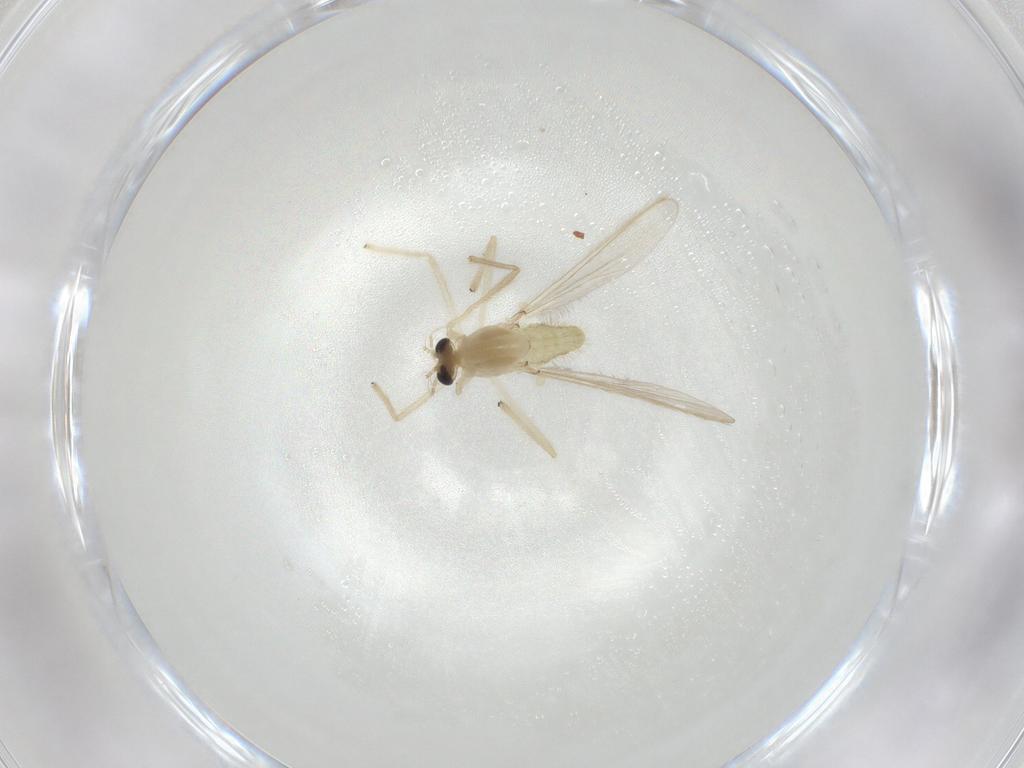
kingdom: Animalia
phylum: Arthropoda
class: Insecta
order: Diptera
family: Chironomidae
